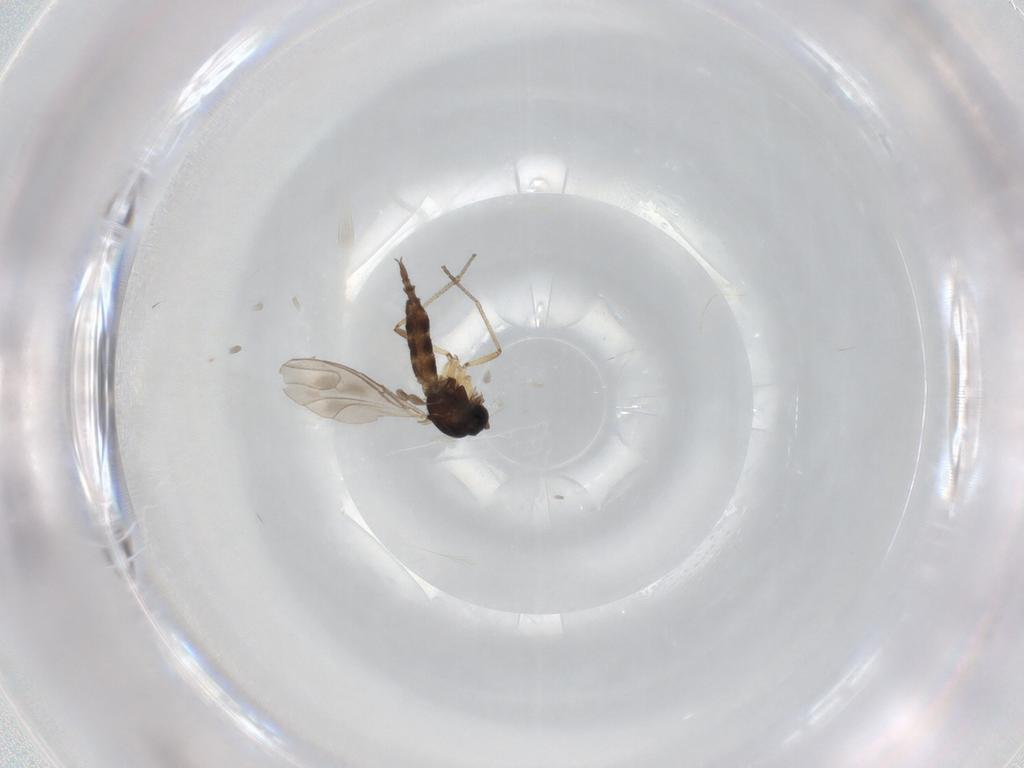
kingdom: Animalia
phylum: Arthropoda
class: Insecta
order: Diptera
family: Sciaridae
